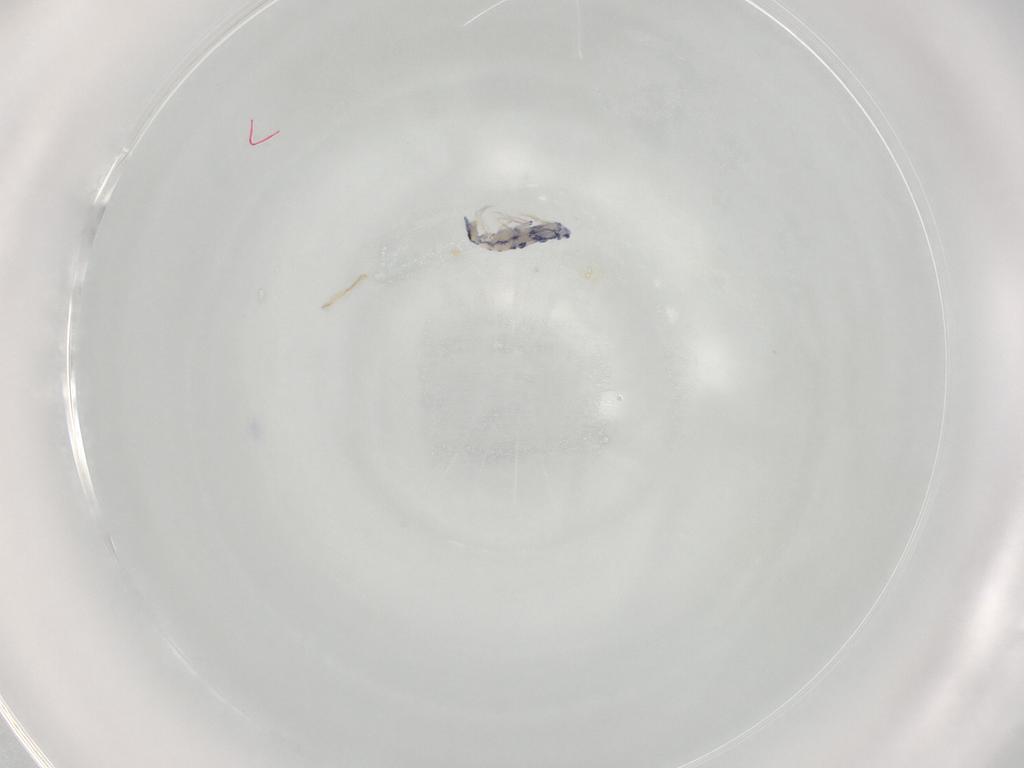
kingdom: Animalia
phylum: Arthropoda
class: Collembola
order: Entomobryomorpha
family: Entomobryidae
